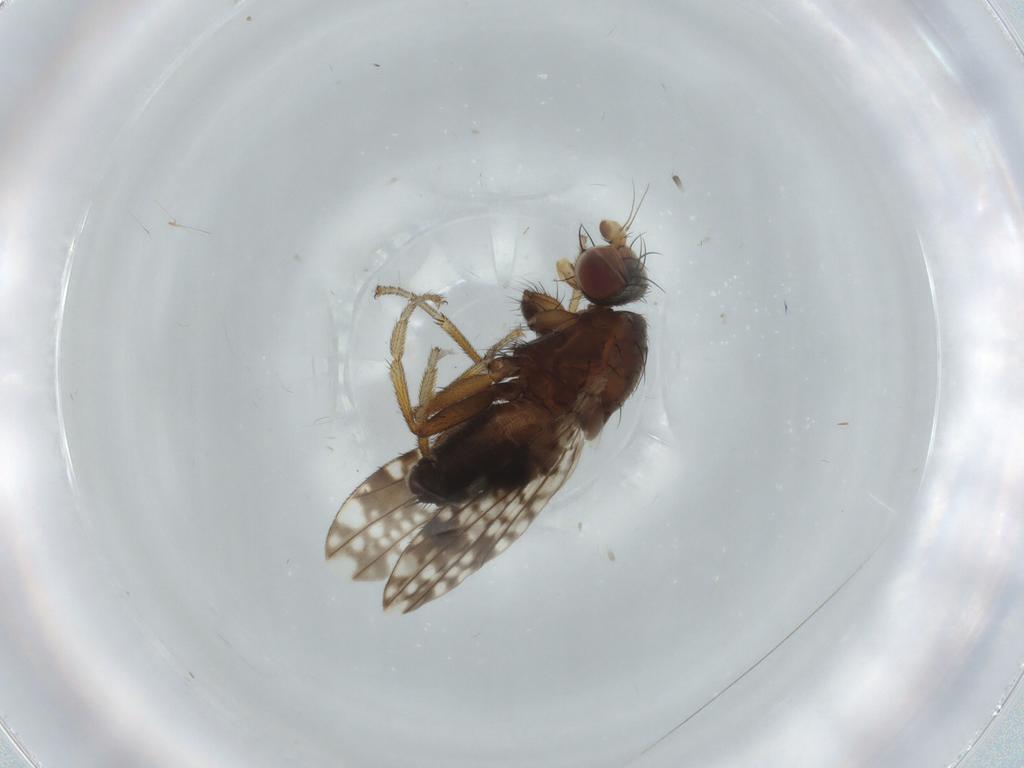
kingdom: Animalia
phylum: Arthropoda
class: Insecta
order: Diptera
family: Tephritidae
